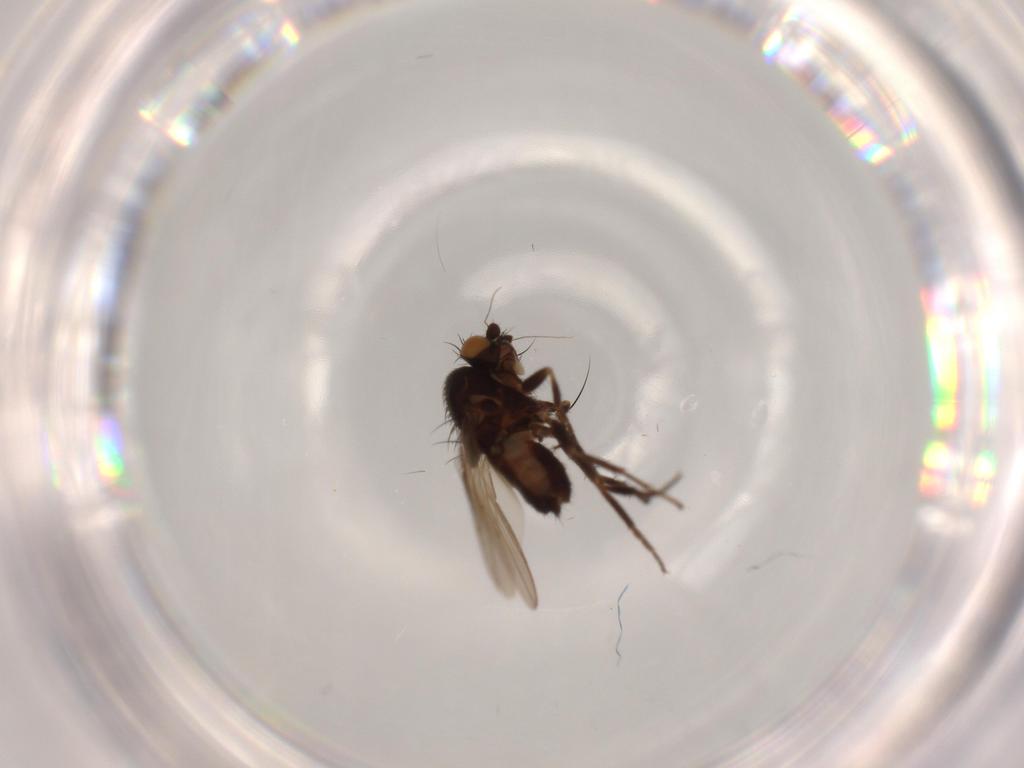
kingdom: Animalia
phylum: Arthropoda
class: Insecta
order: Diptera
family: Sphaeroceridae
